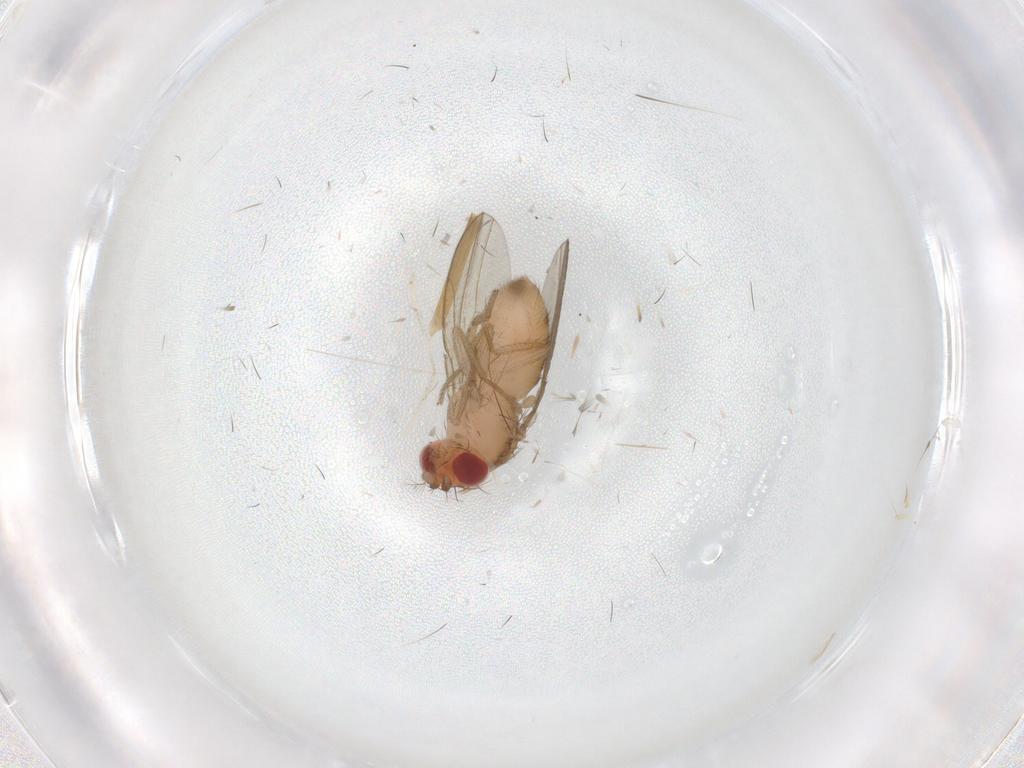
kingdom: Animalia
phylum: Arthropoda
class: Insecta
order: Diptera
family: Drosophilidae
